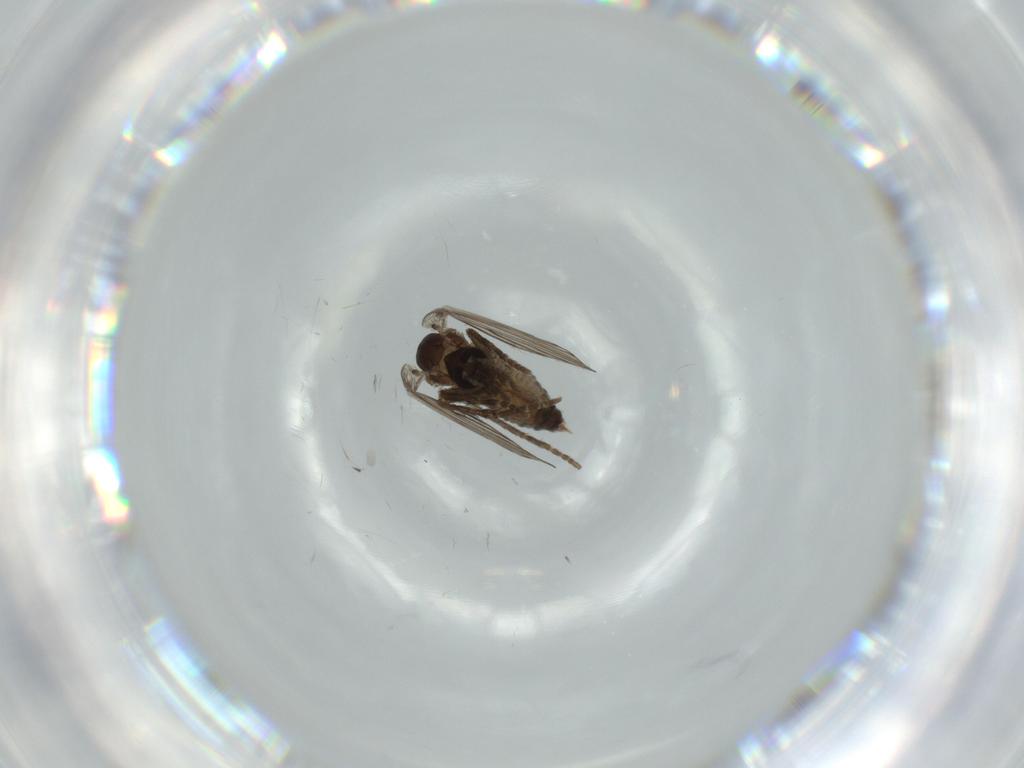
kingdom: Animalia
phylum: Arthropoda
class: Insecta
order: Diptera
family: Psychodidae
